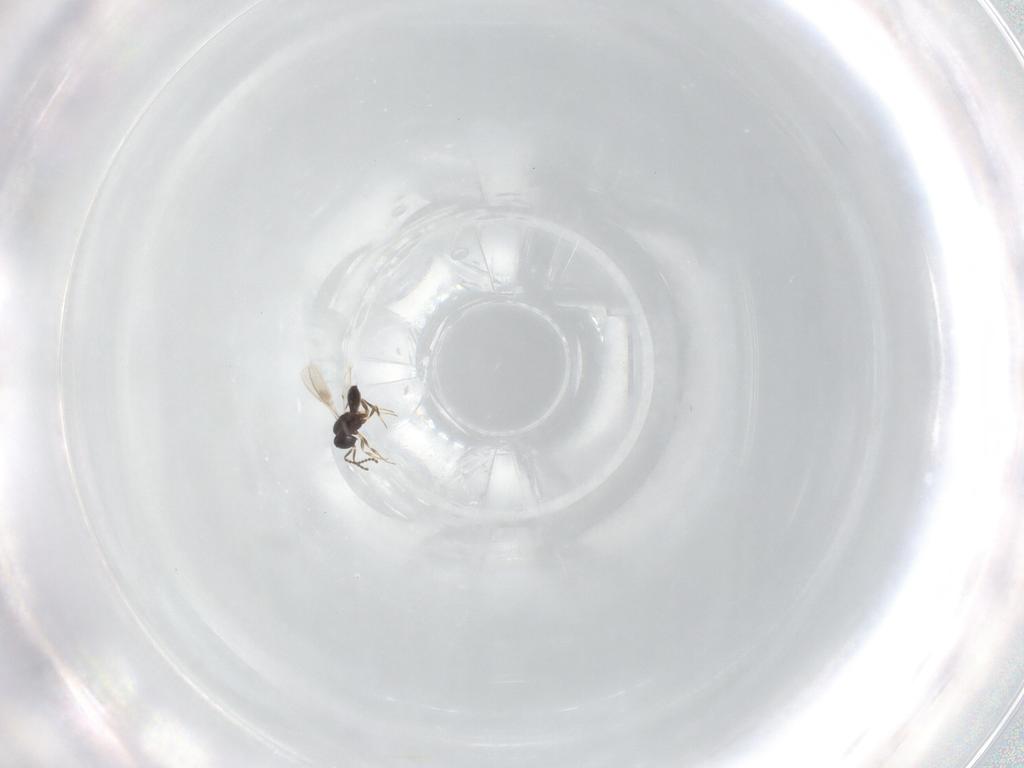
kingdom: Animalia
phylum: Arthropoda
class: Insecta
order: Hymenoptera
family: Scelionidae
